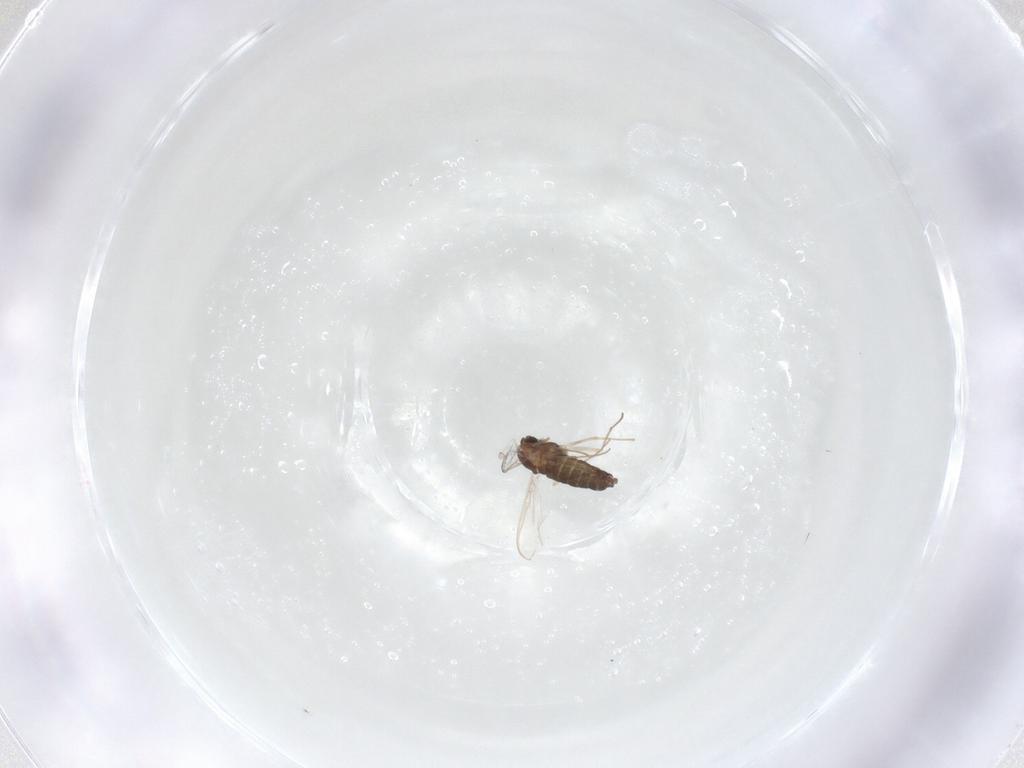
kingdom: Animalia
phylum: Arthropoda
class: Insecta
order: Diptera
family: Chironomidae
